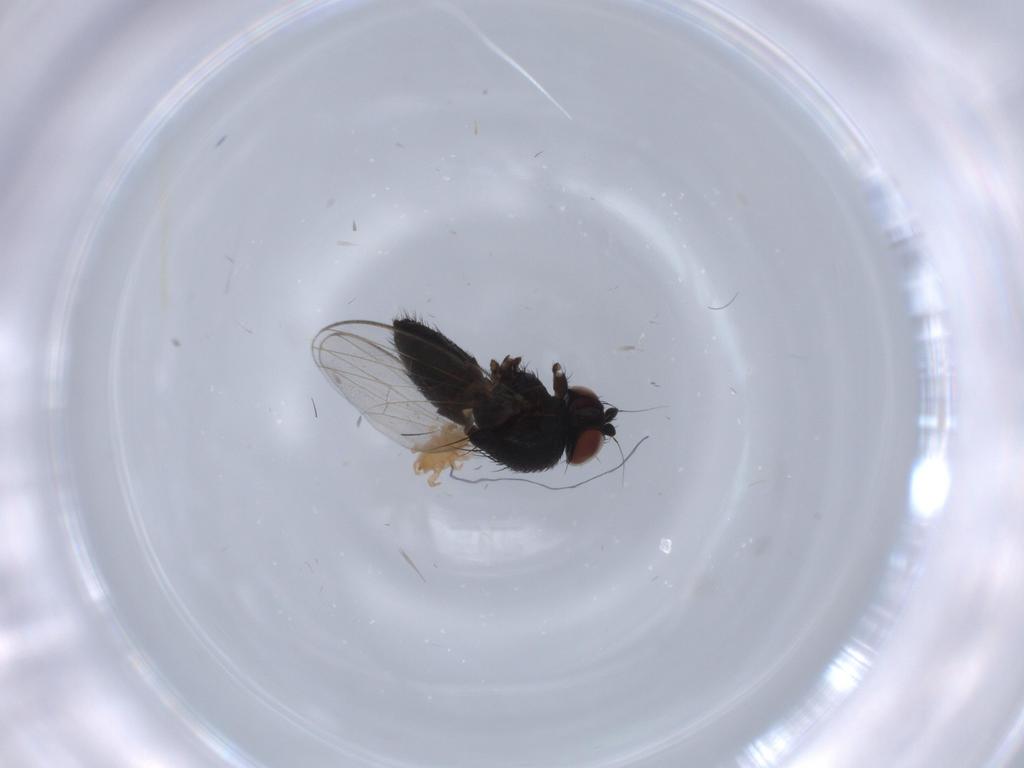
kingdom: Animalia
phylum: Arthropoda
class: Insecta
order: Diptera
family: Milichiidae
